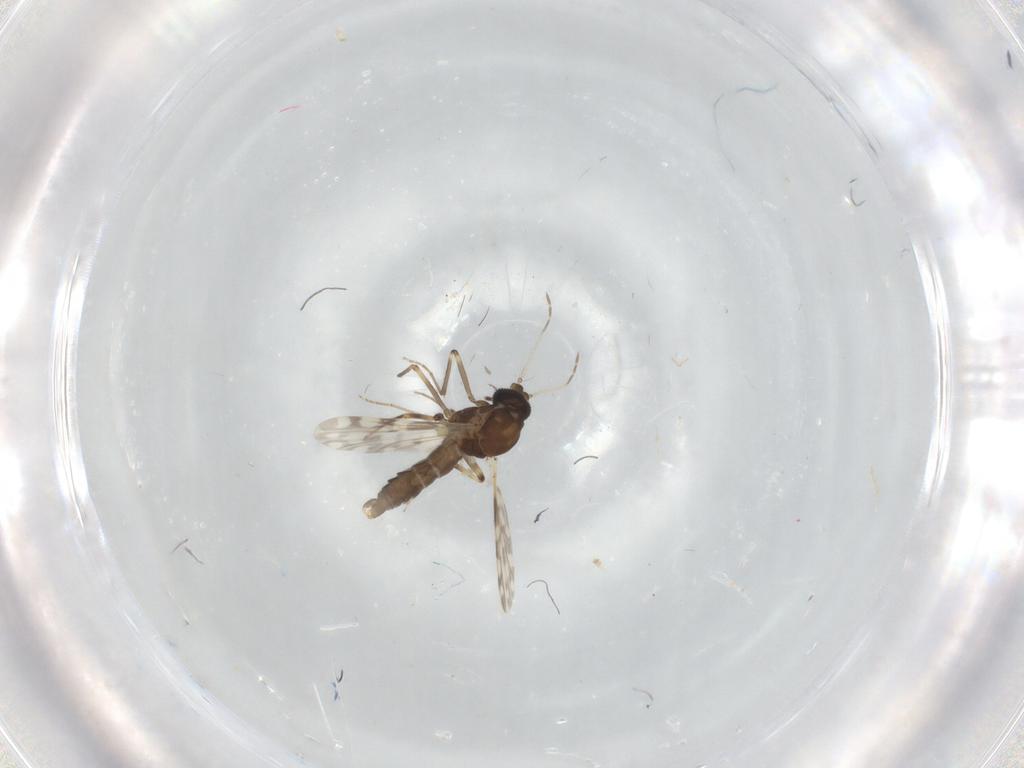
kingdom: Animalia
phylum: Arthropoda
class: Insecta
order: Diptera
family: Ceratopogonidae
